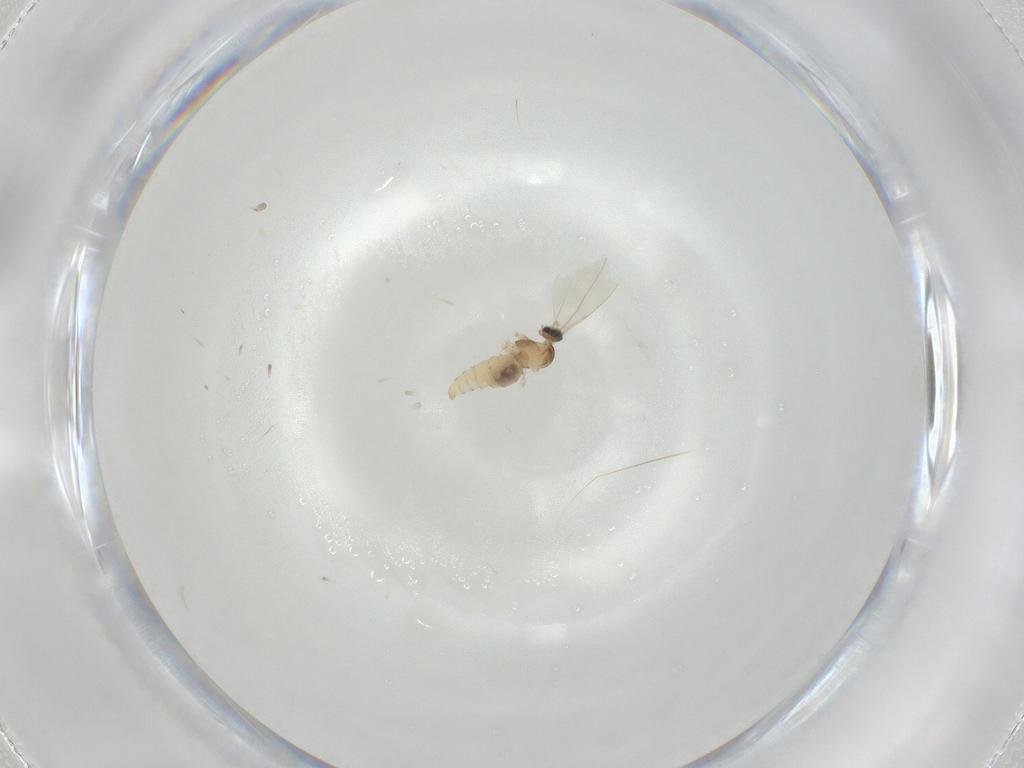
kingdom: Animalia
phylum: Arthropoda
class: Insecta
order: Diptera
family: Cecidomyiidae
